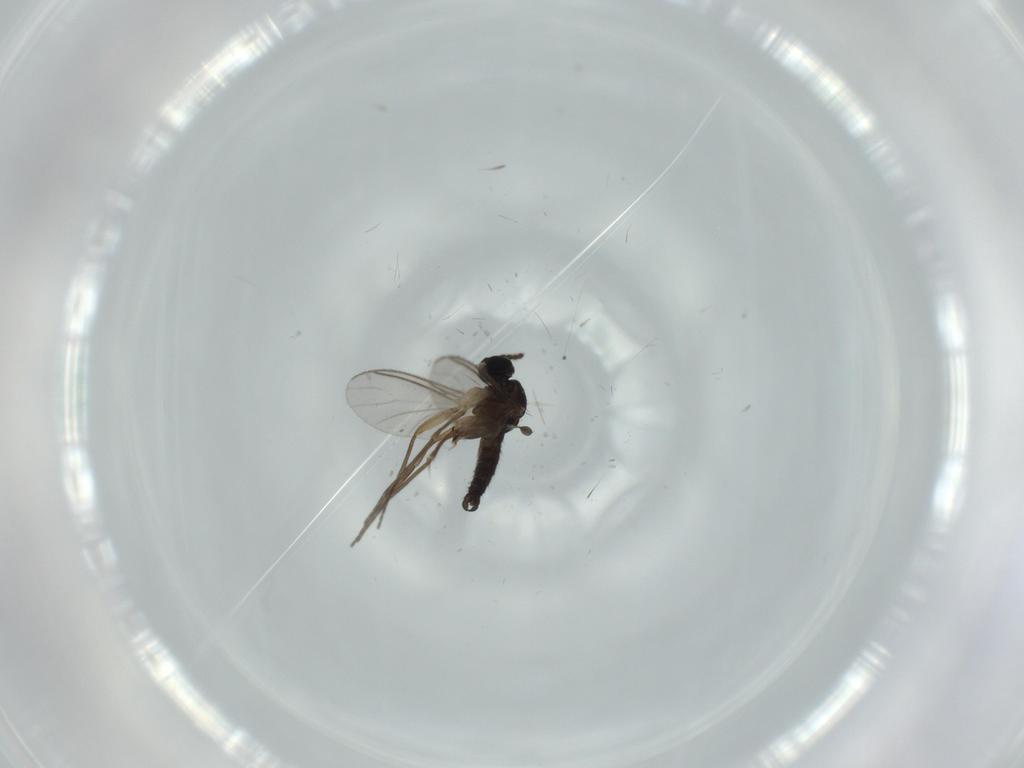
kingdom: Animalia
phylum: Arthropoda
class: Insecta
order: Diptera
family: Sciaridae
